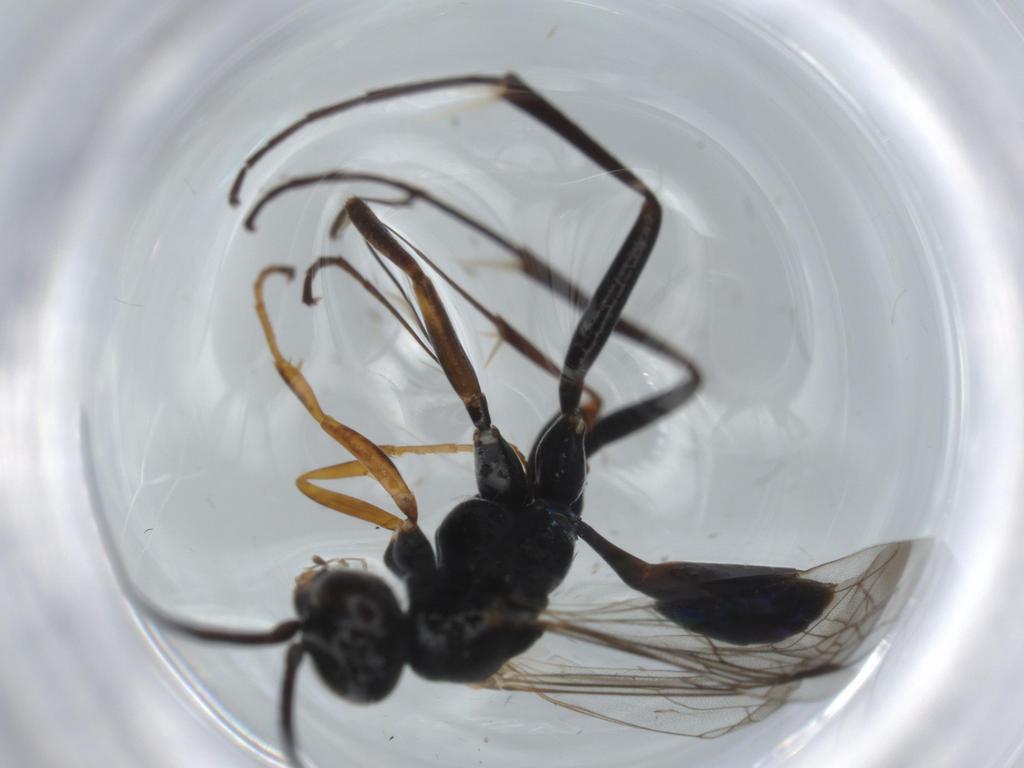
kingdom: Animalia
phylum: Arthropoda
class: Insecta
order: Hymenoptera
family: Pompilidae
